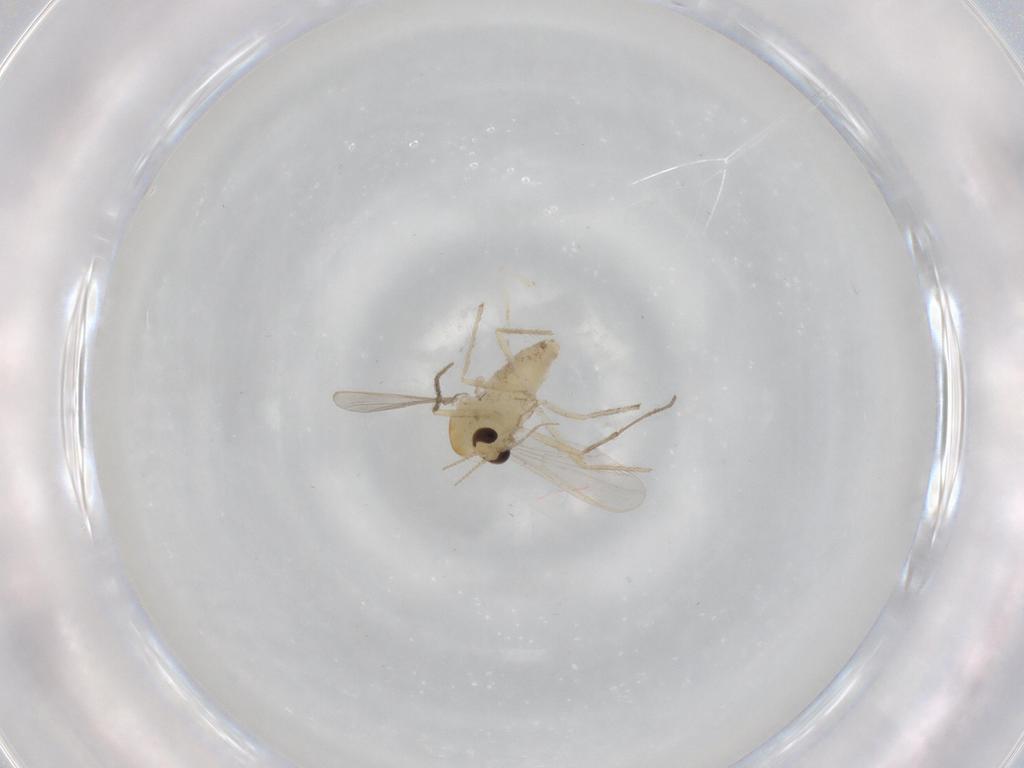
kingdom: Animalia
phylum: Arthropoda
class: Insecta
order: Diptera
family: Chironomidae
